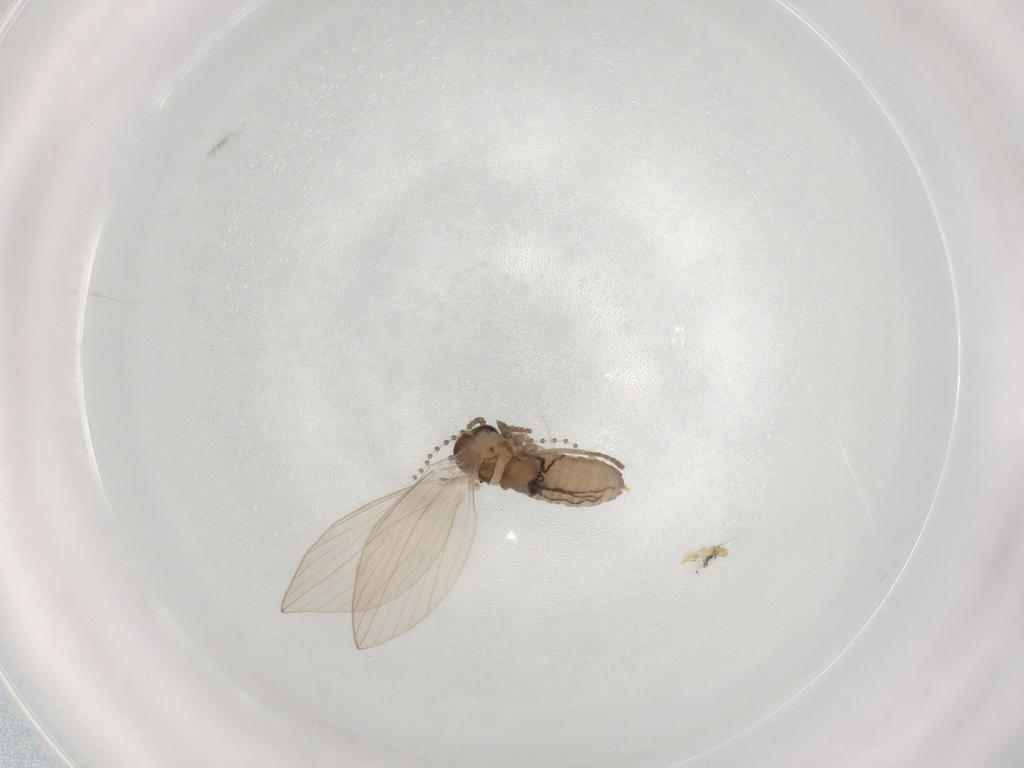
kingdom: Animalia
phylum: Arthropoda
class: Insecta
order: Diptera
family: Psychodidae
